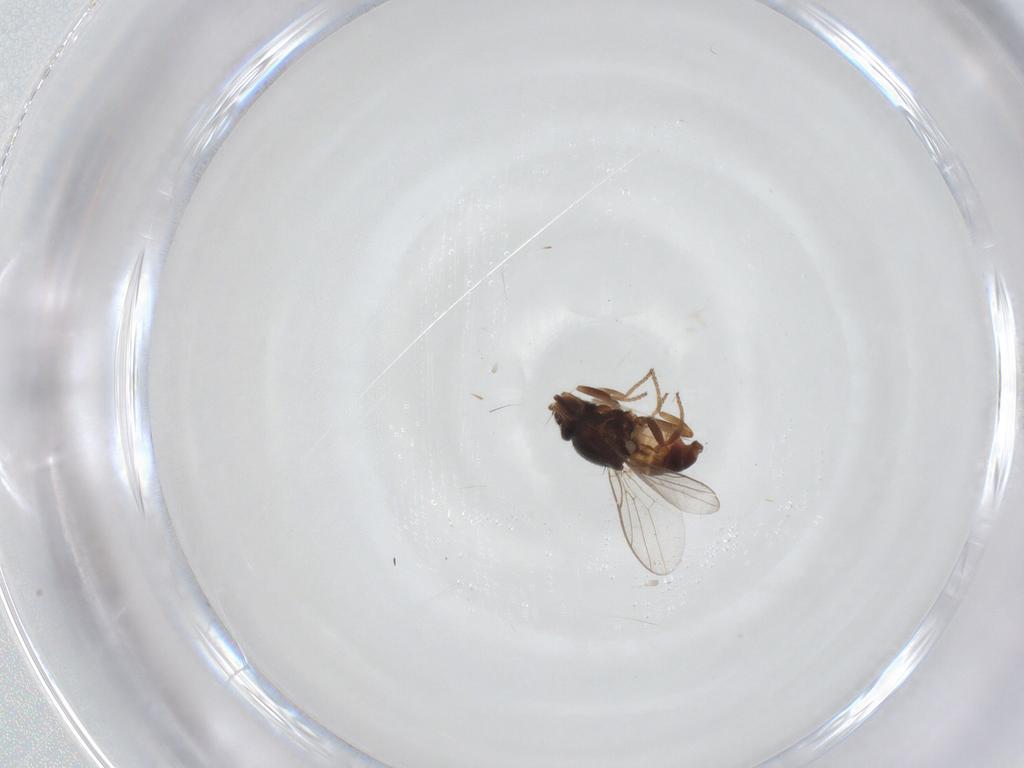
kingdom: Animalia
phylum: Arthropoda
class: Insecta
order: Diptera
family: Chloropidae
